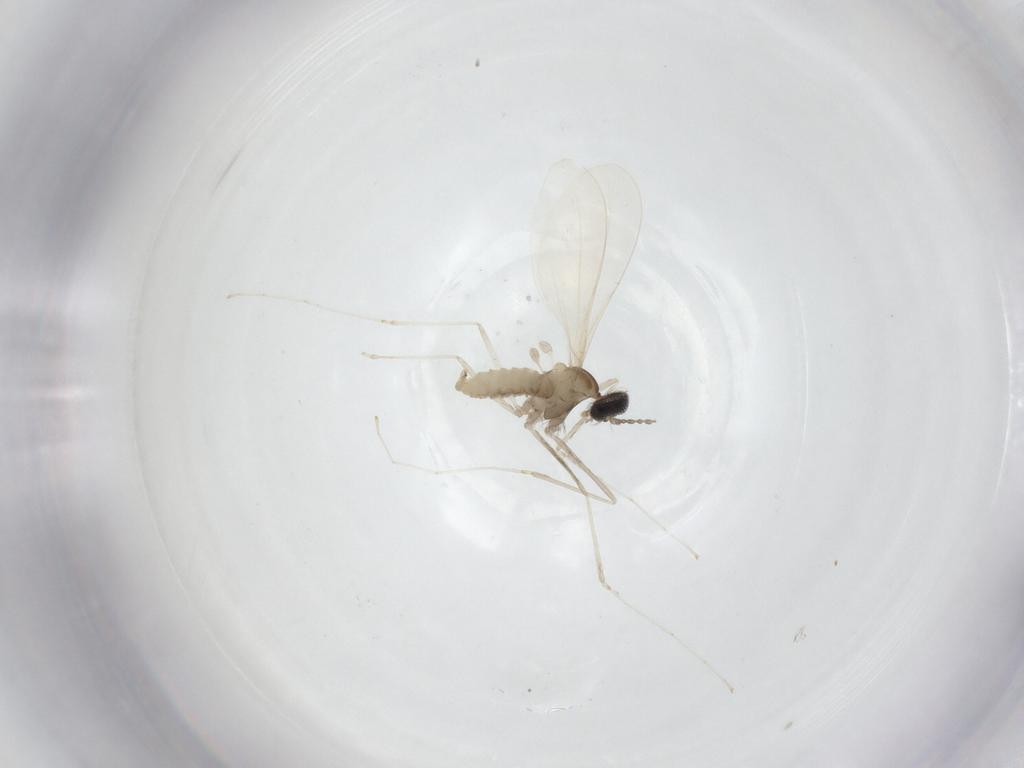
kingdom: Animalia
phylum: Arthropoda
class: Insecta
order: Diptera
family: Cecidomyiidae
